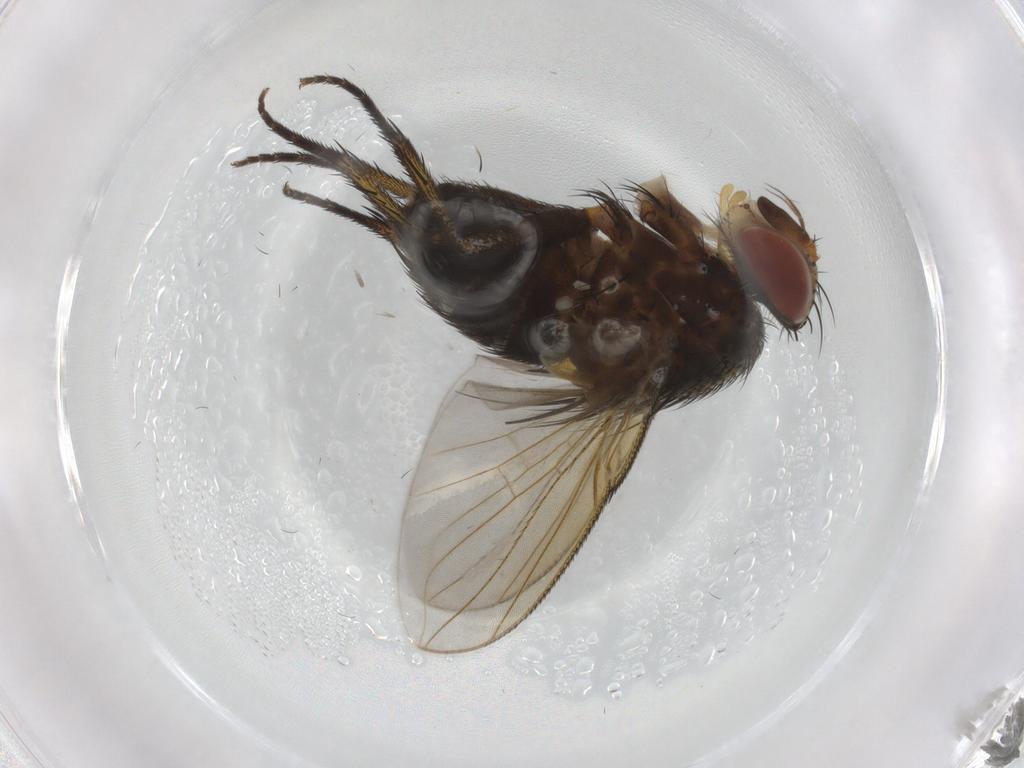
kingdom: Animalia
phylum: Arthropoda
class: Insecta
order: Diptera
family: Tachinidae
